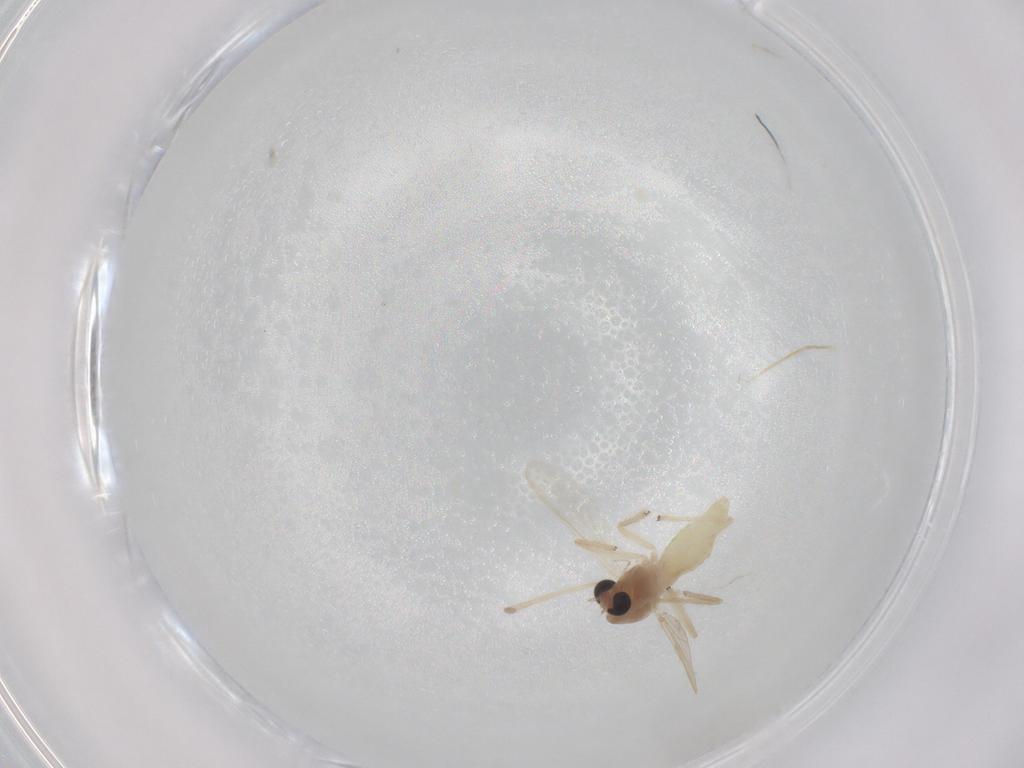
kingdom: Animalia
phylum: Arthropoda
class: Insecta
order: Diptera
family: Chironomidae
